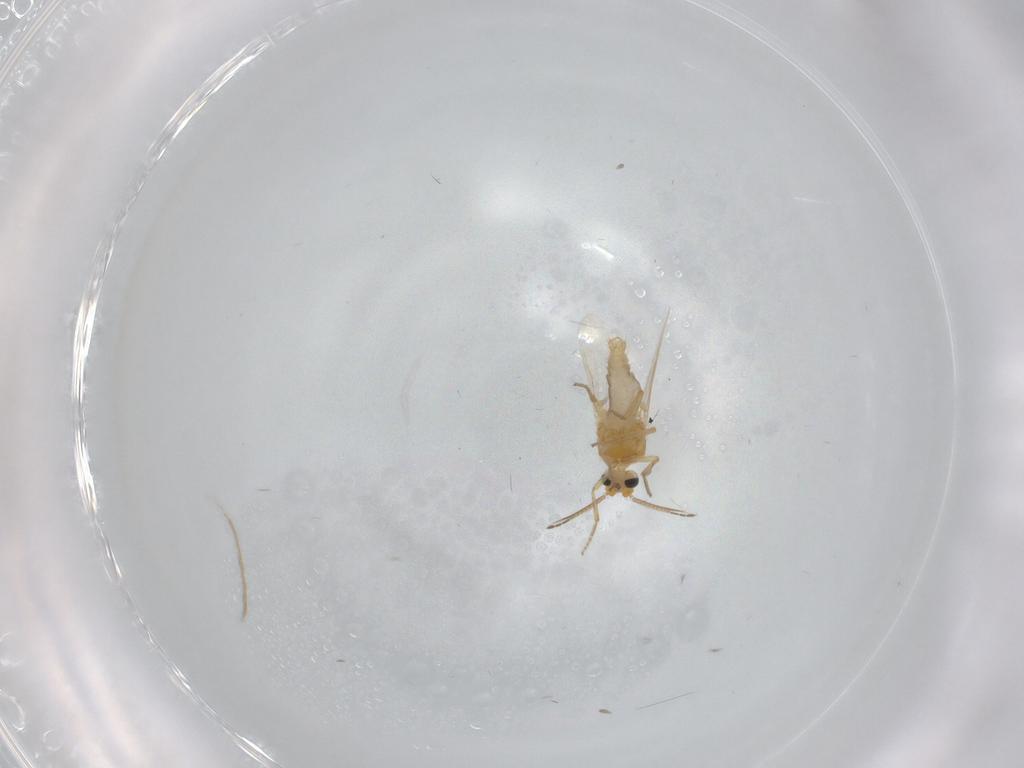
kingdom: Animalia
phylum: Arthropoda
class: Insecta
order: Diptera
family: Ceratopogonidae
